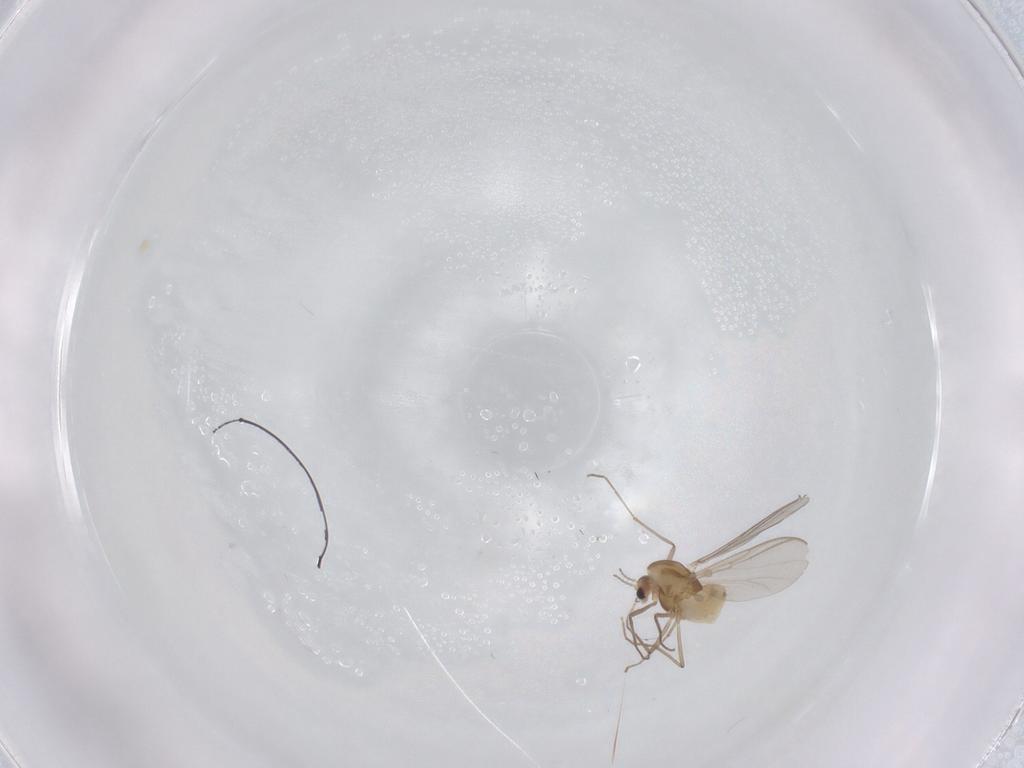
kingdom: Animalia
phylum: Arthropoda
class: Insecta
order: Diptera
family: Chironomidae
